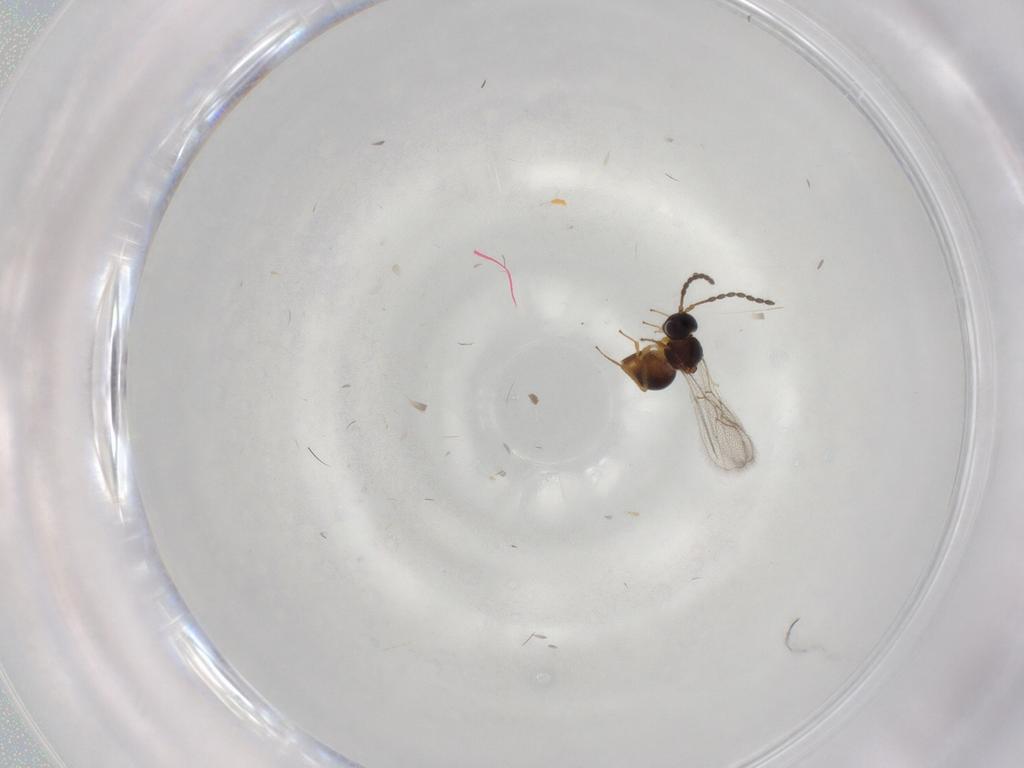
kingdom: Animalia
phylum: Arthropoda
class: Insecta
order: Hymenoptera
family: Figitidae
